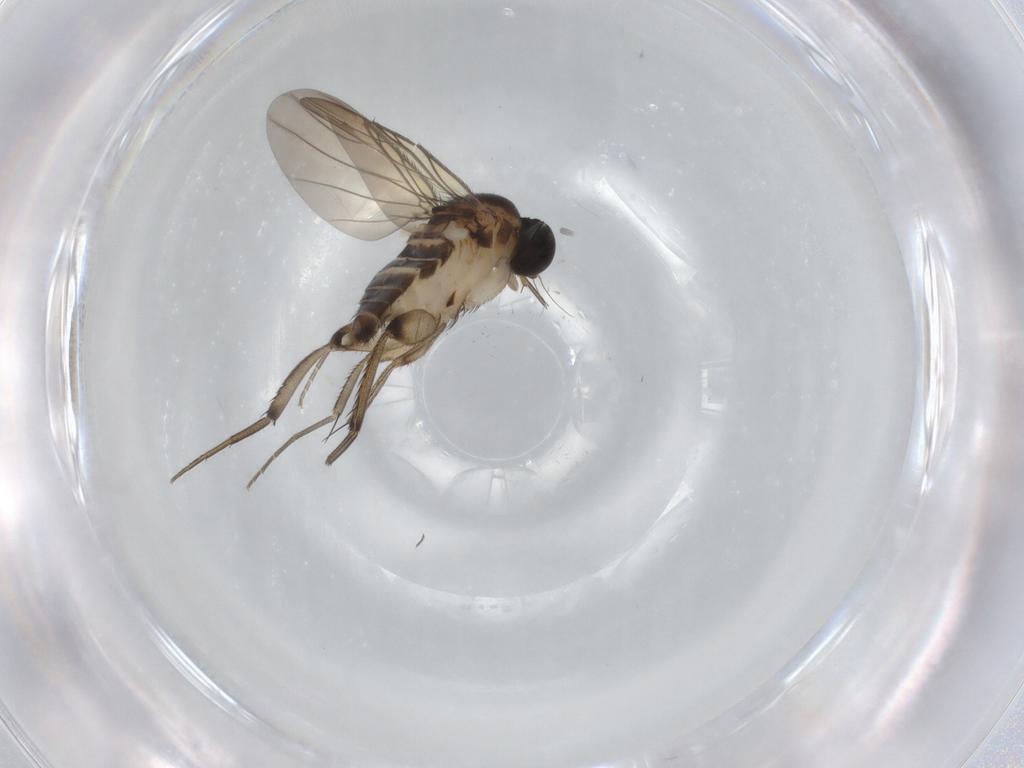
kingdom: Animalia
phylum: Arthropoda
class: Insecta
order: Diptera
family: Phoridae
